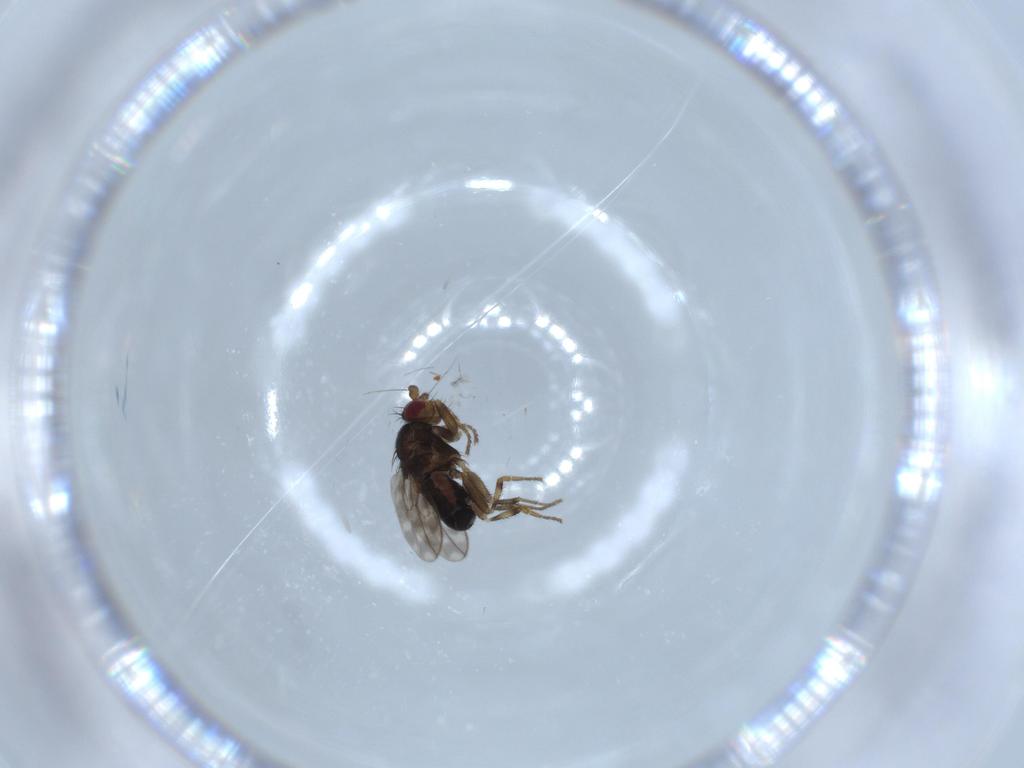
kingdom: Animalia
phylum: Arthropoda
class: Insecta
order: Diptera
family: Sphaeroceridae
